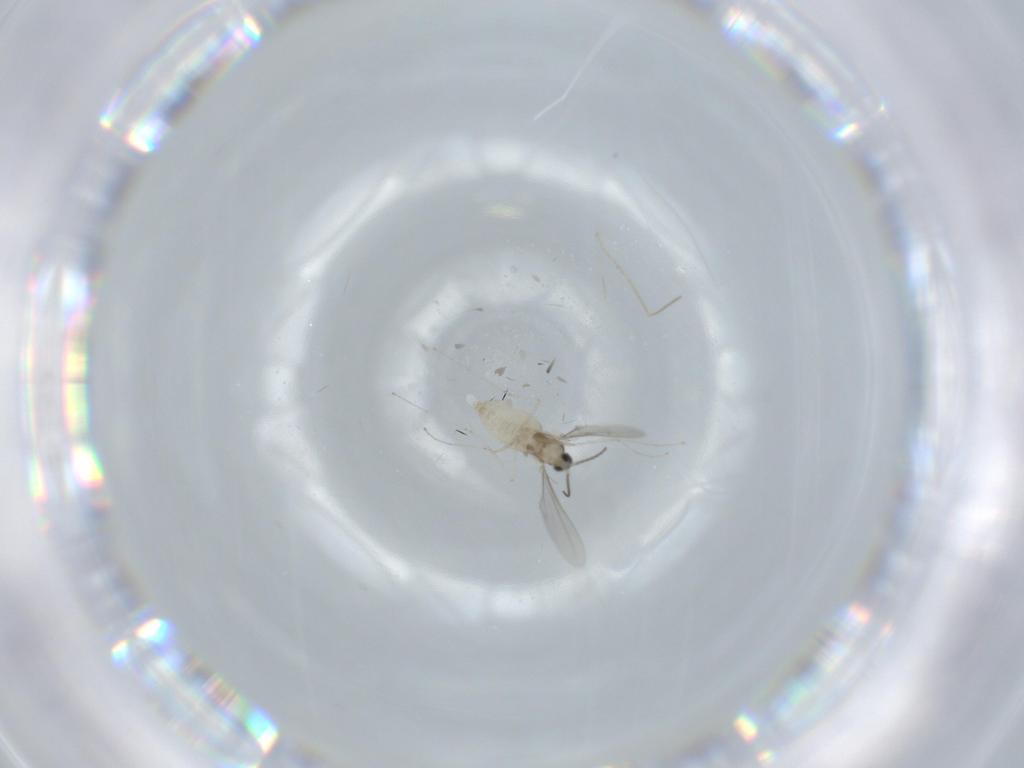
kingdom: Animalia
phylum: Arthropoda
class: Insecta
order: Diptera
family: Cecidomyiidae
